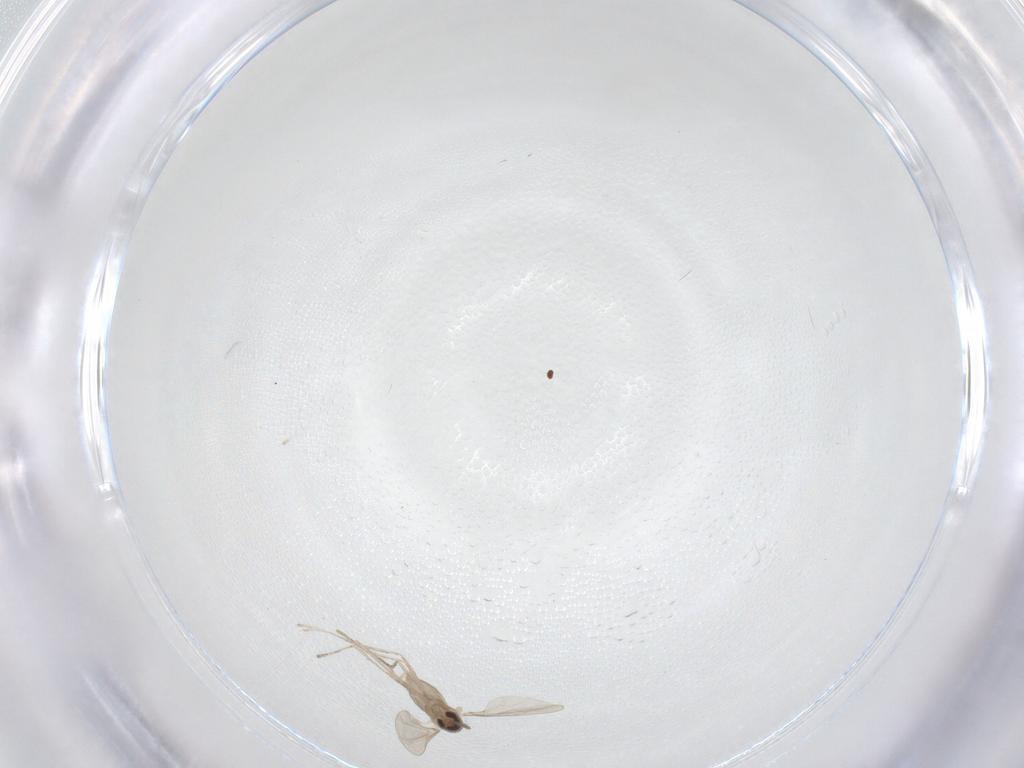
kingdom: Animalia
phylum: Arthropoda
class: Insecta
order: Diptera
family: Cecidomyiidae
